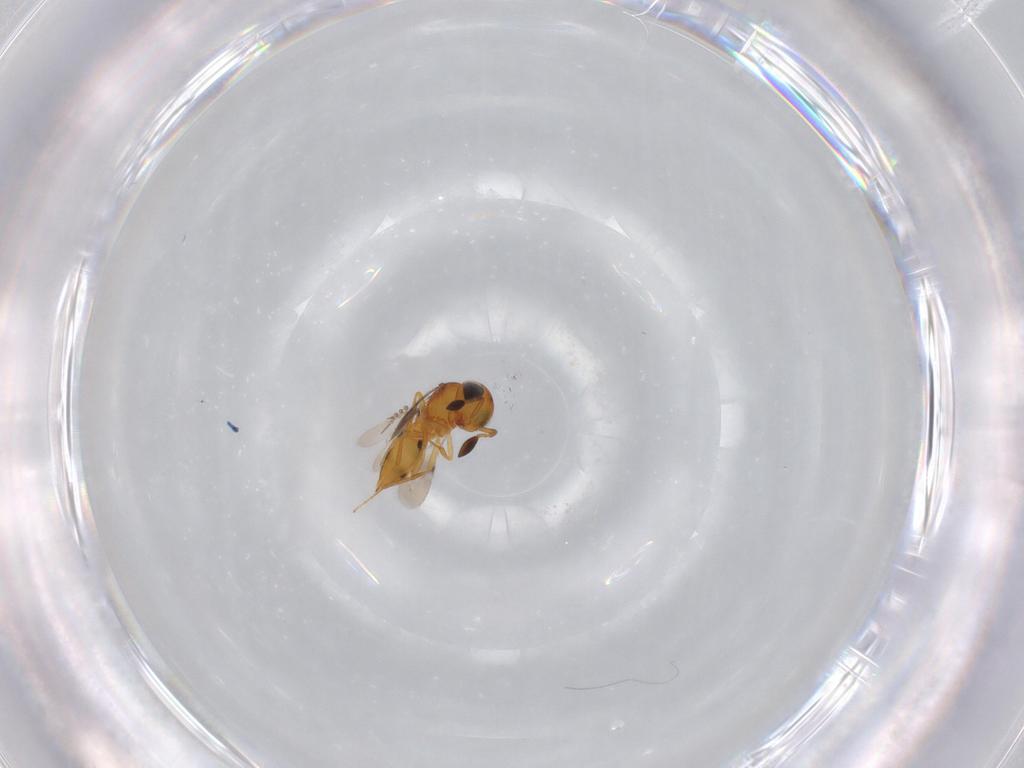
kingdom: Animalia
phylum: Arthropoda
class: Insecta
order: Hymenoptera
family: Scelionidae
